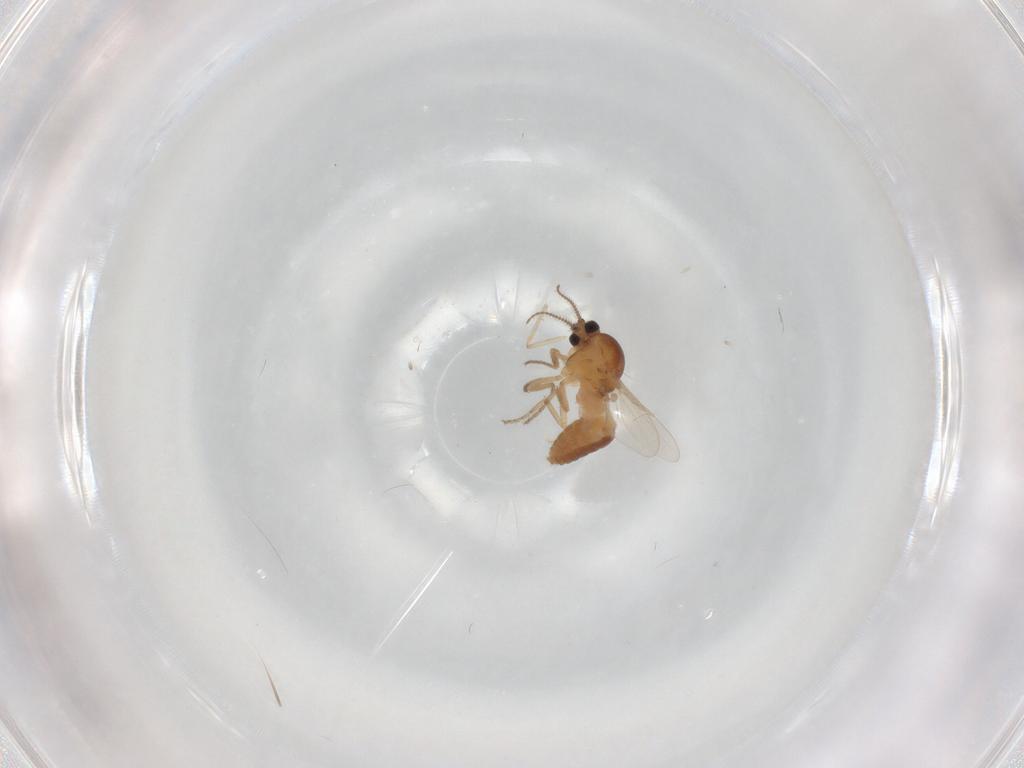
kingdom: Animalia
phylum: Arthropoda
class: Insecta
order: Diptera
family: Ceratopogonidae
